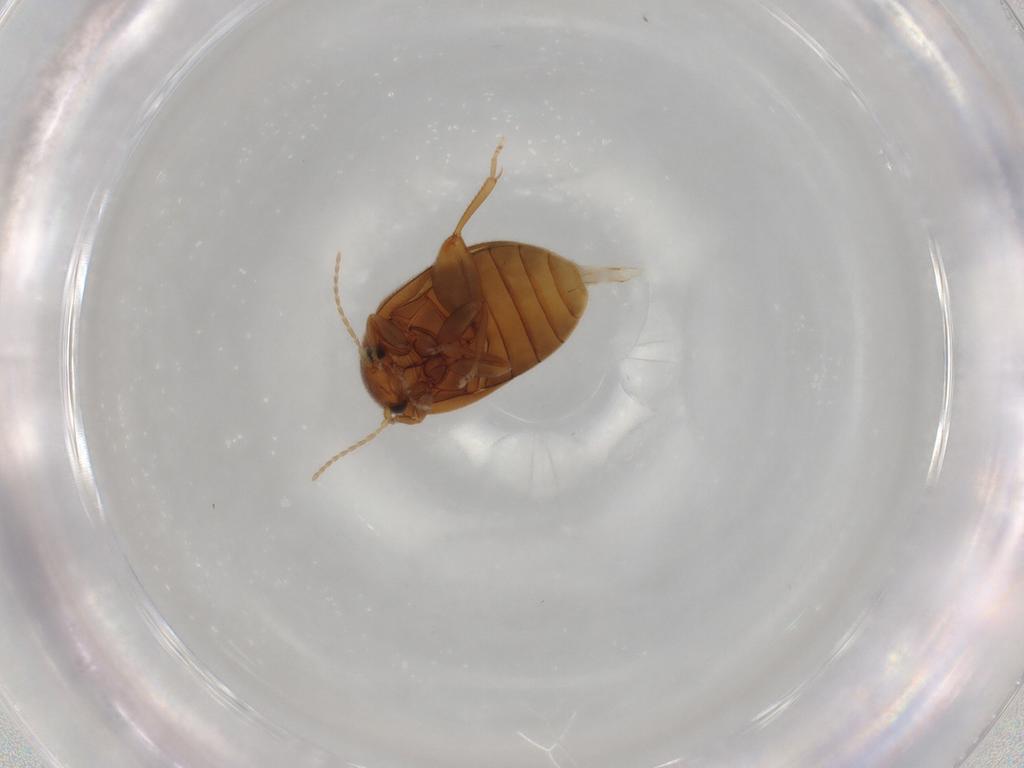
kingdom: Animalia
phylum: Arthropoda
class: Insecta
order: Coleoptera
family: Scirtidae
